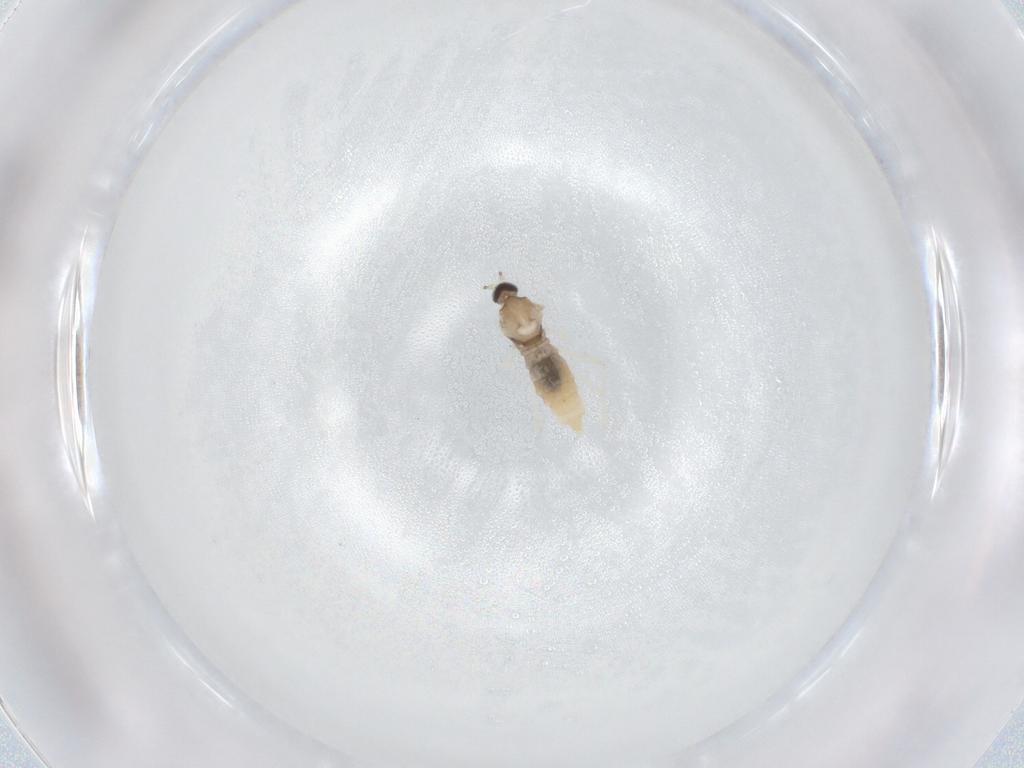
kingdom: Animalia
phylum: Arthropoda
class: Insecta
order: Diptera
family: Cecidomyiidae
